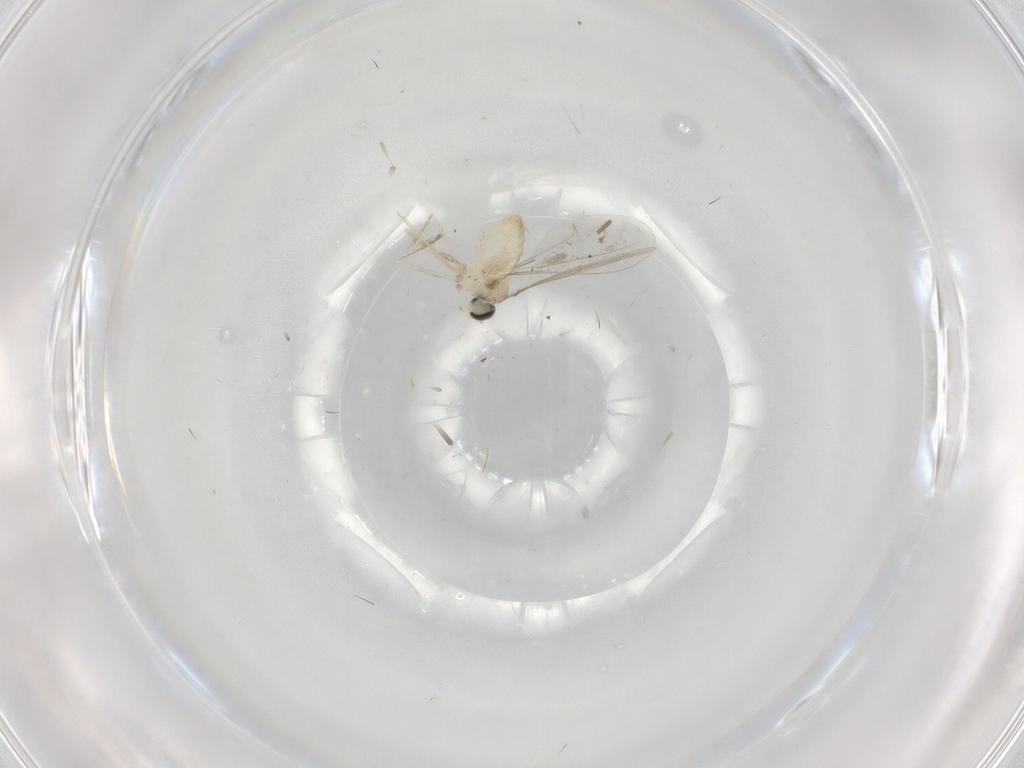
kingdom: Animalia
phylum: Arthropoda
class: Insecta
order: Diptera
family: Cecidomyiidae
